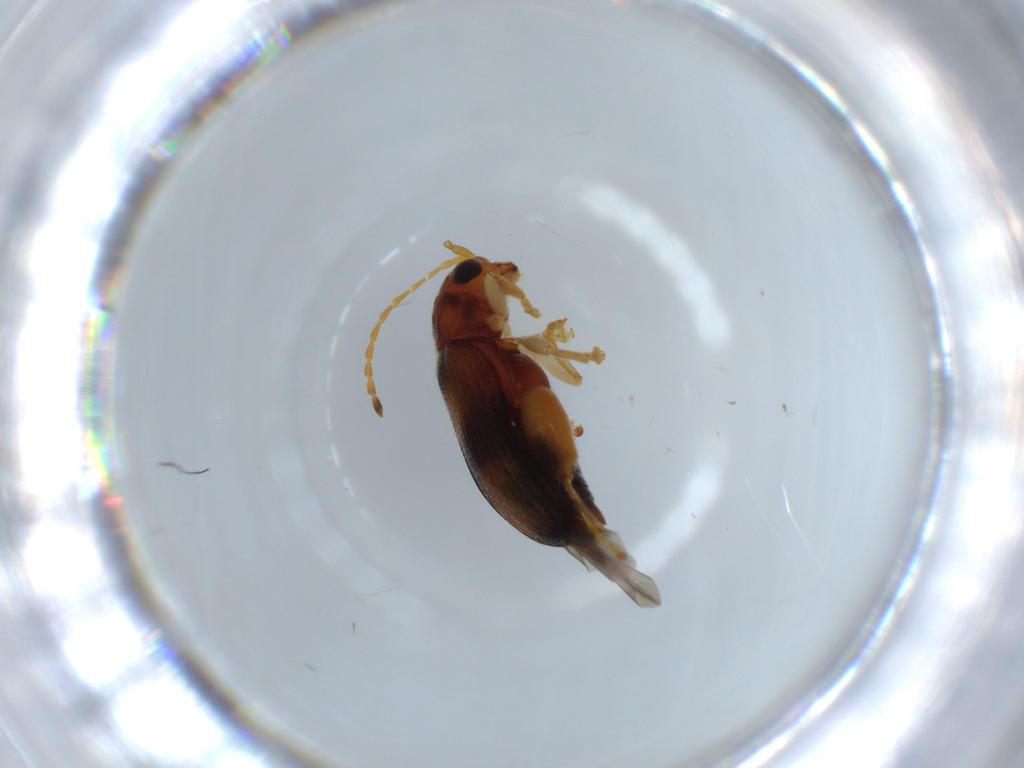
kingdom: Animalia
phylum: Arthropoda
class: Insecta
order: Coleoptera
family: Chrysomelidae
